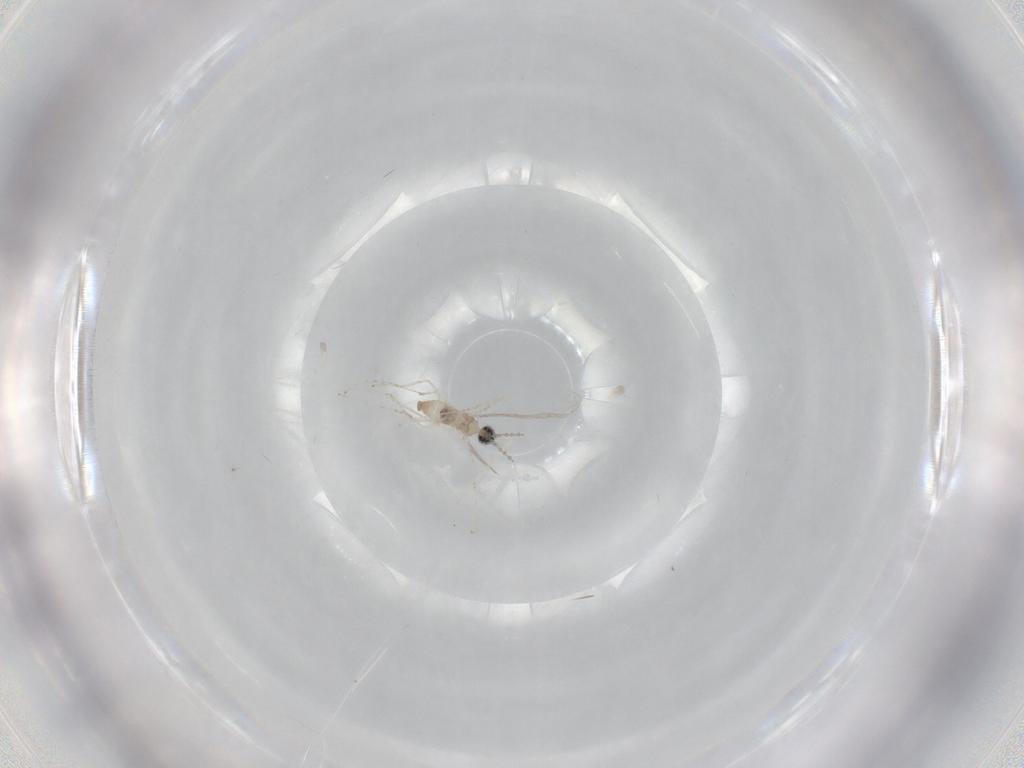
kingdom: Animalia
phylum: Arthropoda
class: Insecta
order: Diptera
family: Cecidomyiidae
